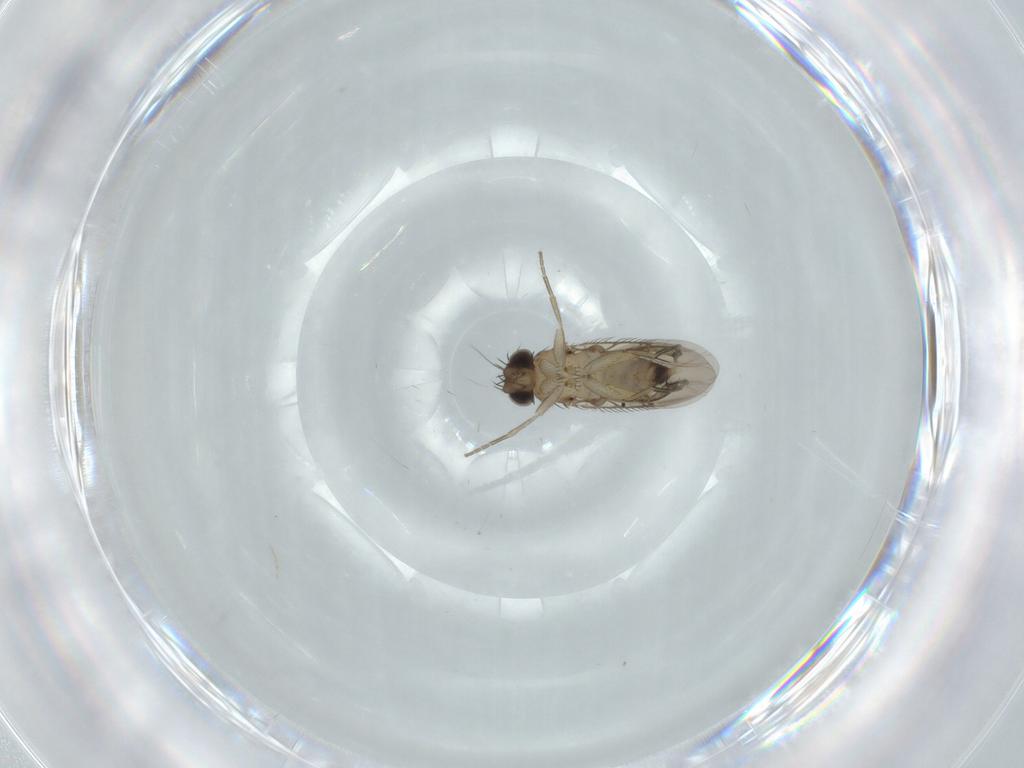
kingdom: Animalia
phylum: Arthropoda
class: Insecta
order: Diptera
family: Phoridae
